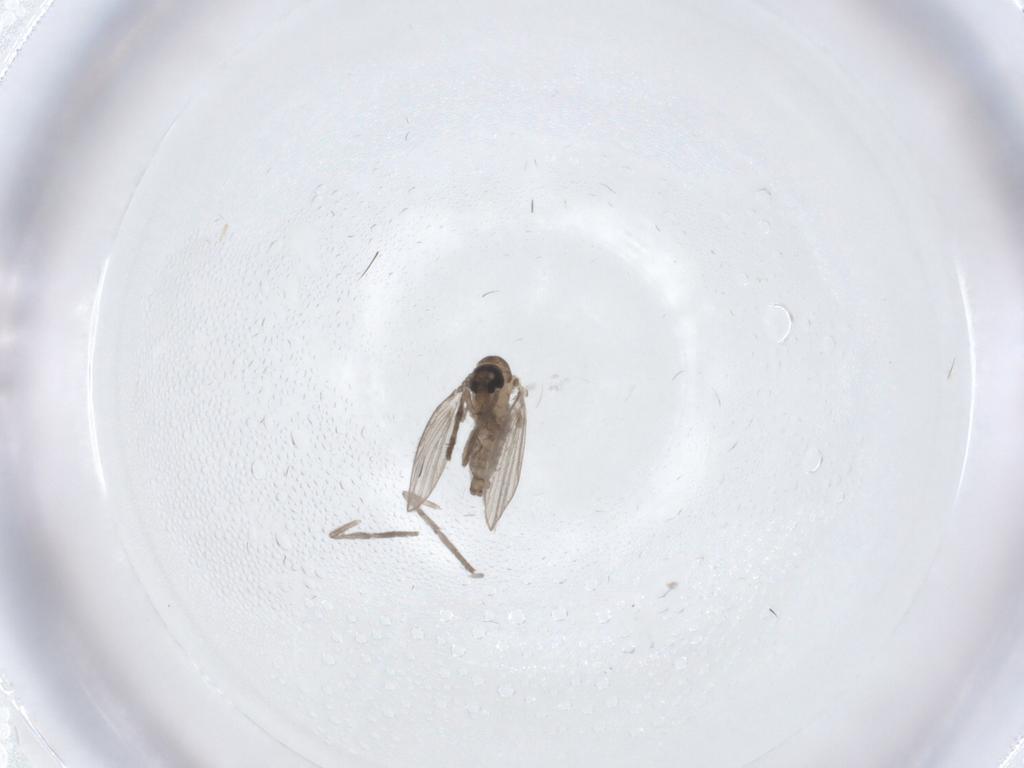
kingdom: Animalia
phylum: Arthropoda
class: Insecta
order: Diptera
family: Psychodidae
